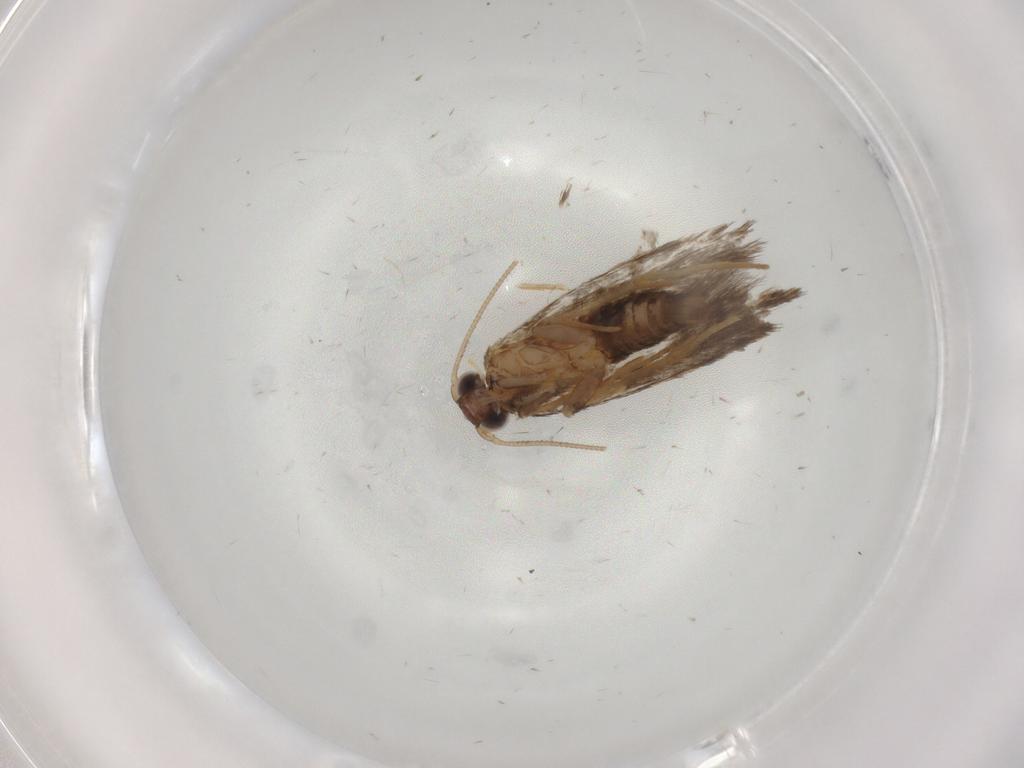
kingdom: Animalia
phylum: Arthropoda
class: Insecta
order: Lepidoptera
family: Tineidae
